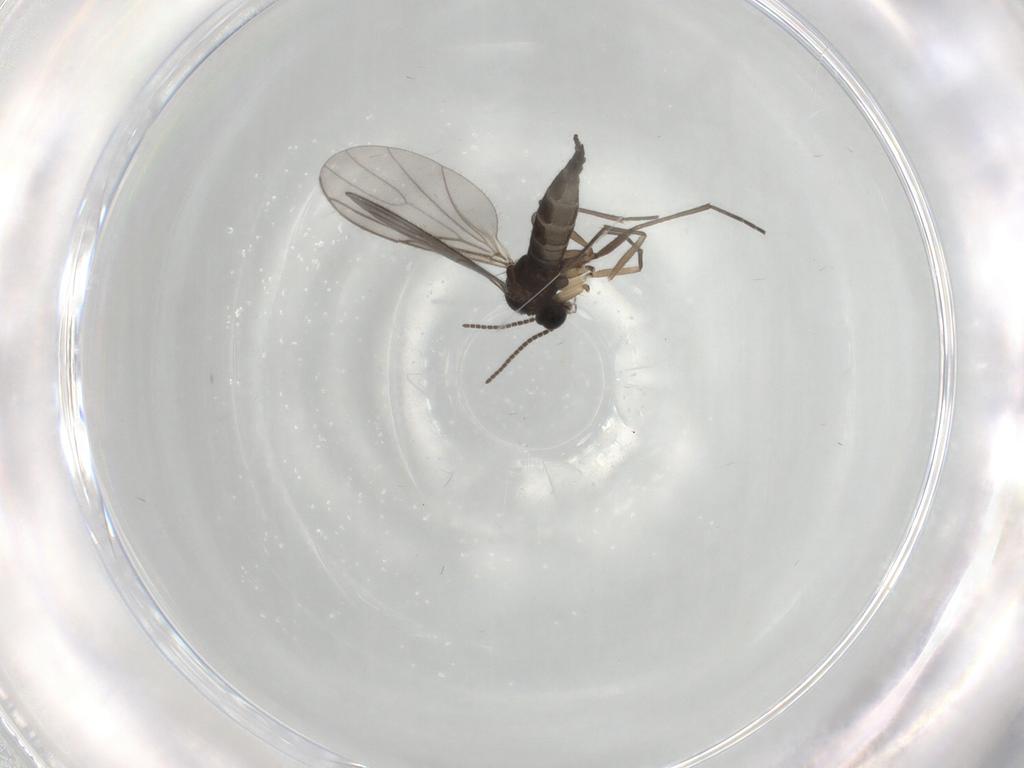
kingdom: Animalia
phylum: Arthropoda
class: Insecta
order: Diptera
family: Sciaridae
